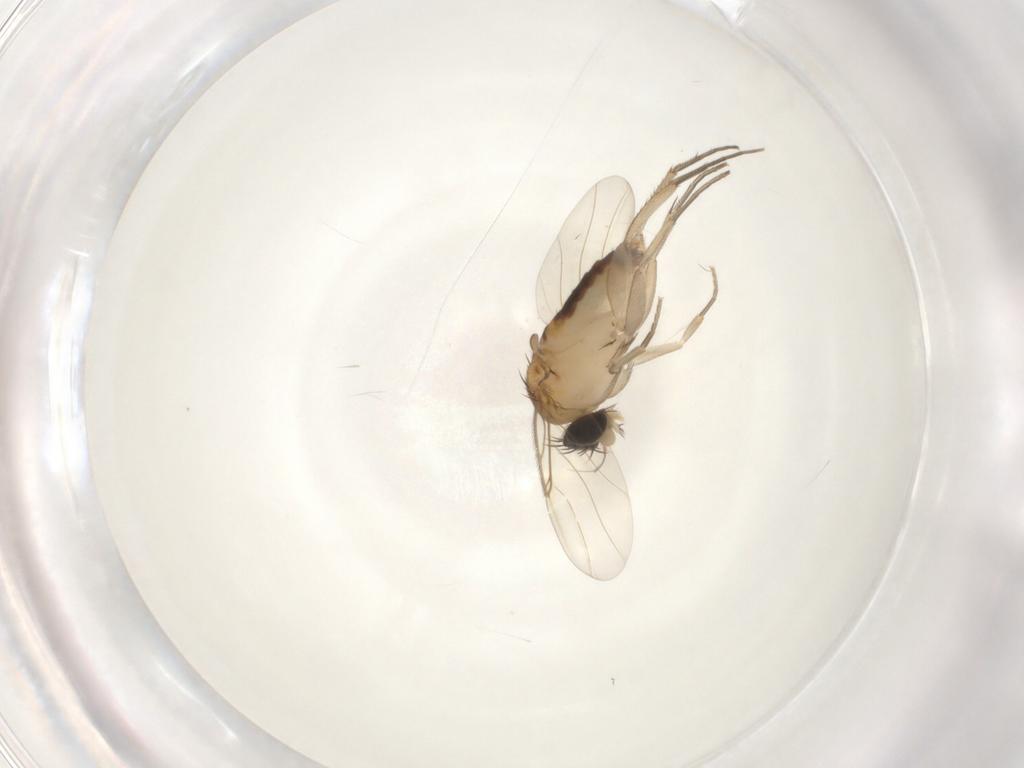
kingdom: Animalia
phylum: Arthropoda
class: Insecta
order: Diptera
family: Phoridae
